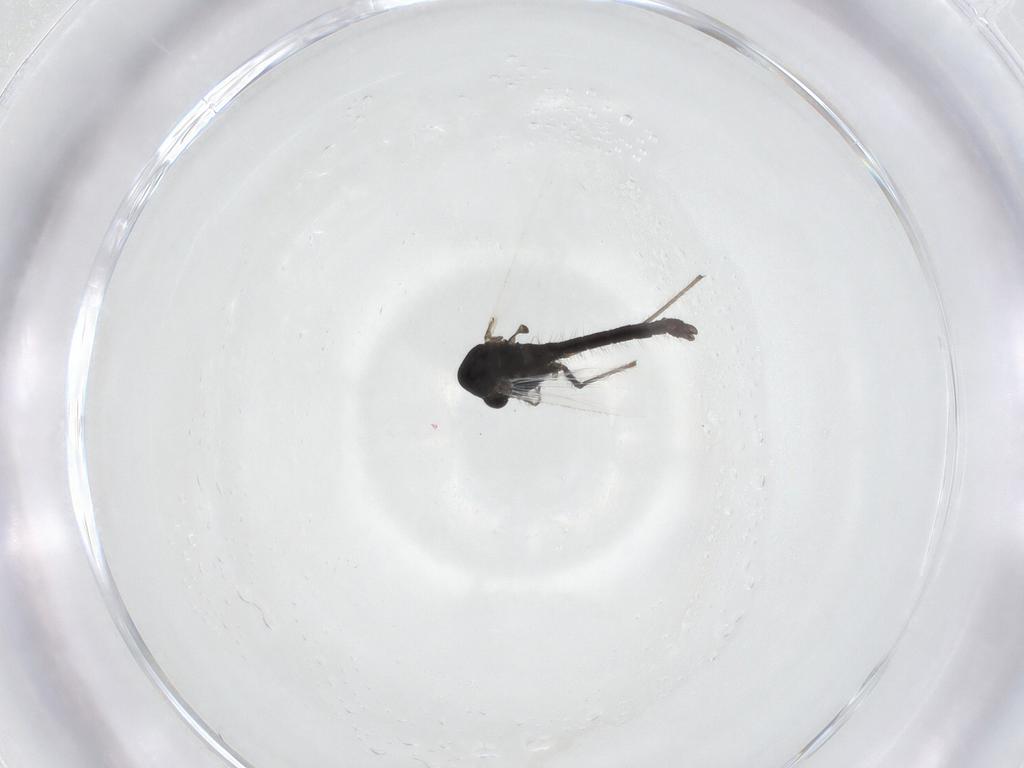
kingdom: Animalia
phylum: Arthropoda
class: Insecta
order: Diptera
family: Chironomidae
